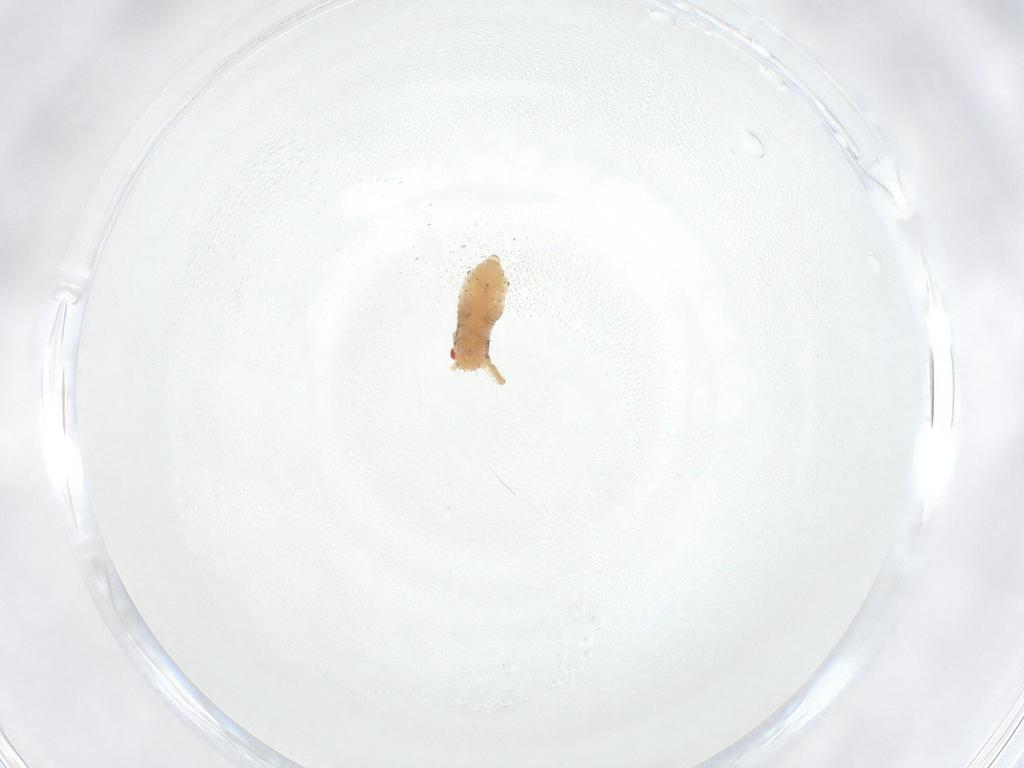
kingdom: Animalia
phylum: Arthropoda
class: Insecta
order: Hemiptera
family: Aphididae
